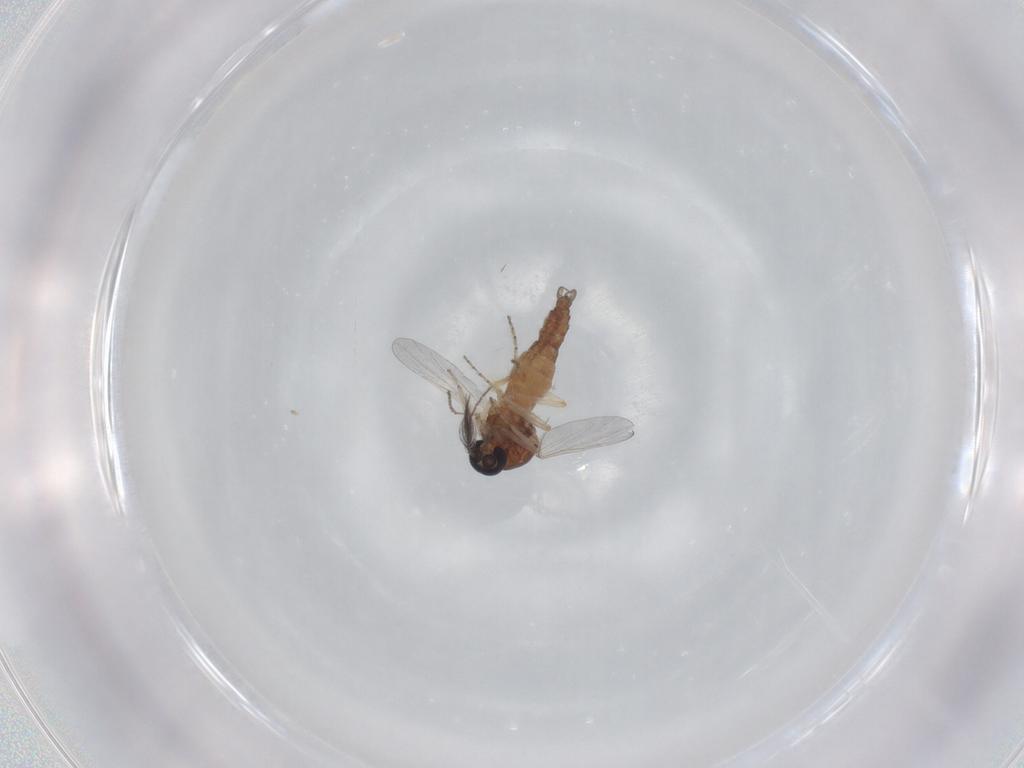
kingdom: Animalia
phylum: Arthropoda
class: Insecta
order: Diptera
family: Ceratopogonidae
